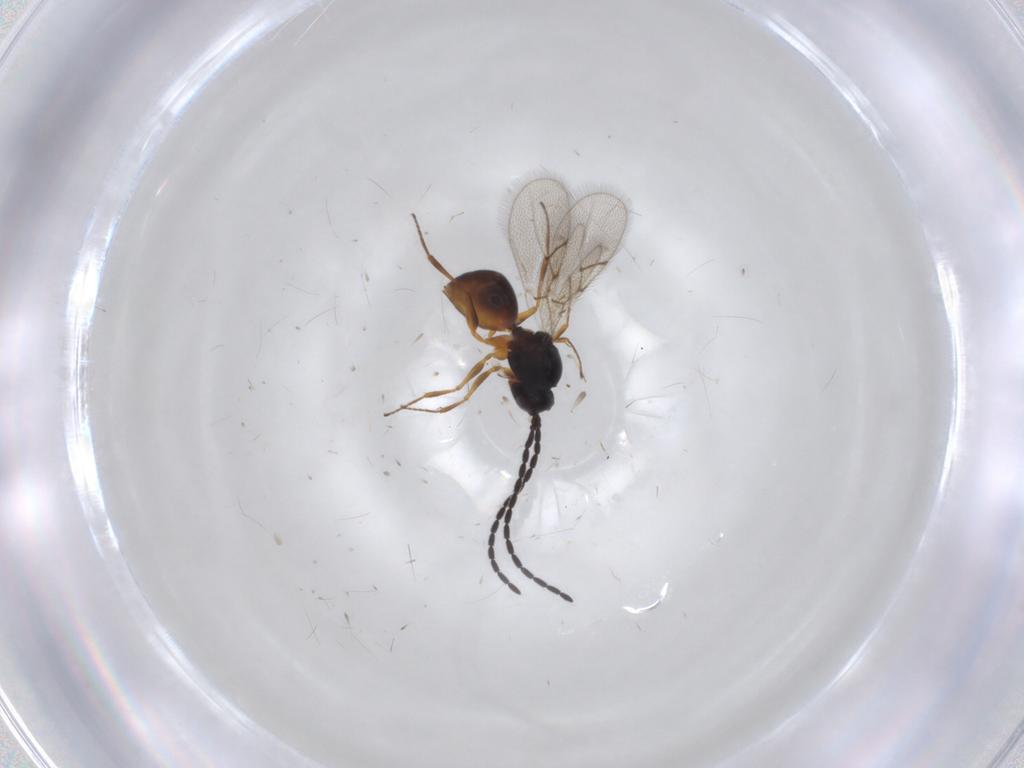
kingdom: Animalia
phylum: Arthropoda
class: Insecta
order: Hymenoptera
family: Figitidae
